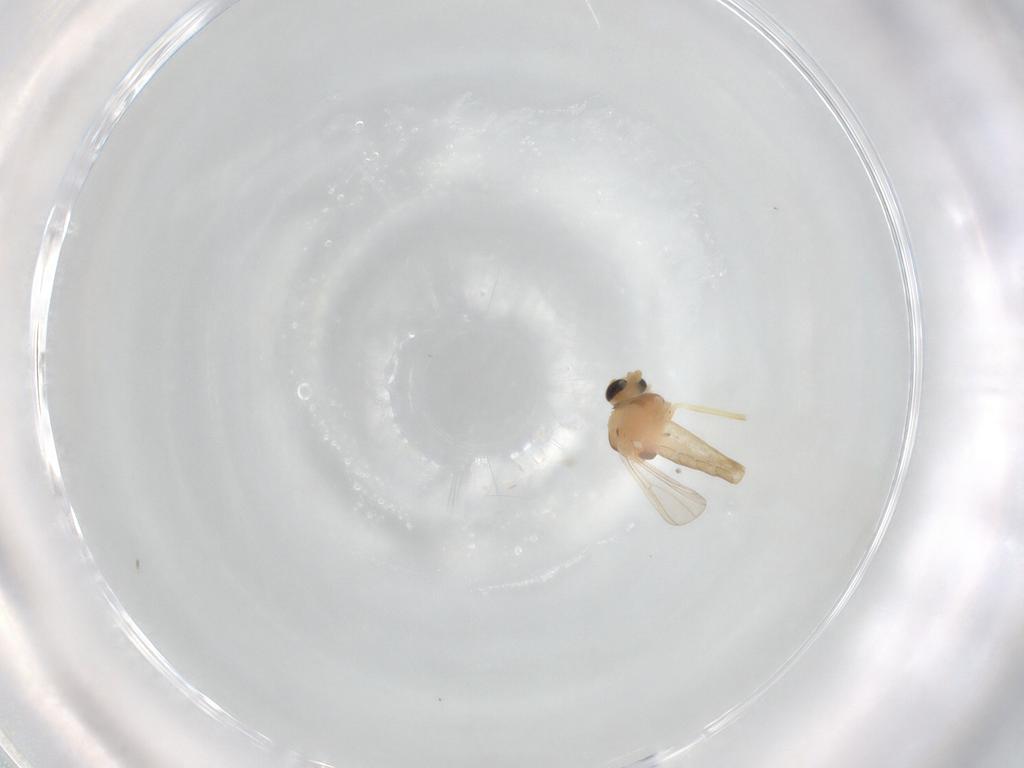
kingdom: Animalia
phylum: Arthropoda
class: Insecta
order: Diptera
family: Chironomidae
